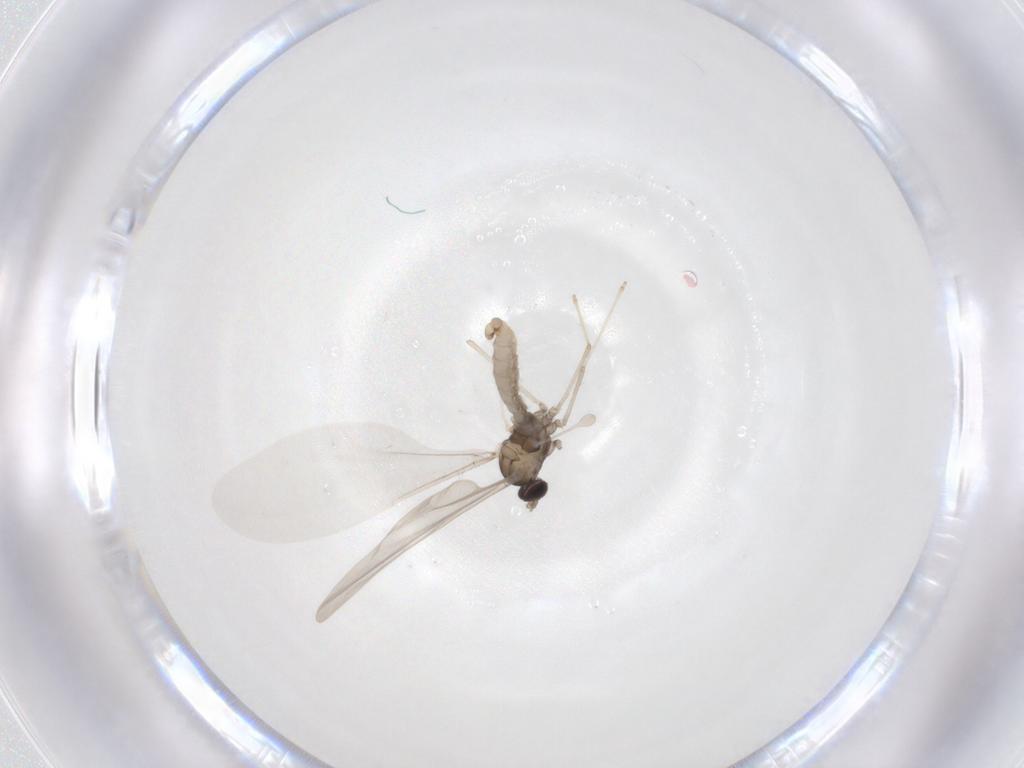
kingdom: Animalia
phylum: Arthropoda
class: Insecta
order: Diptera
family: Cecidomyiidae
